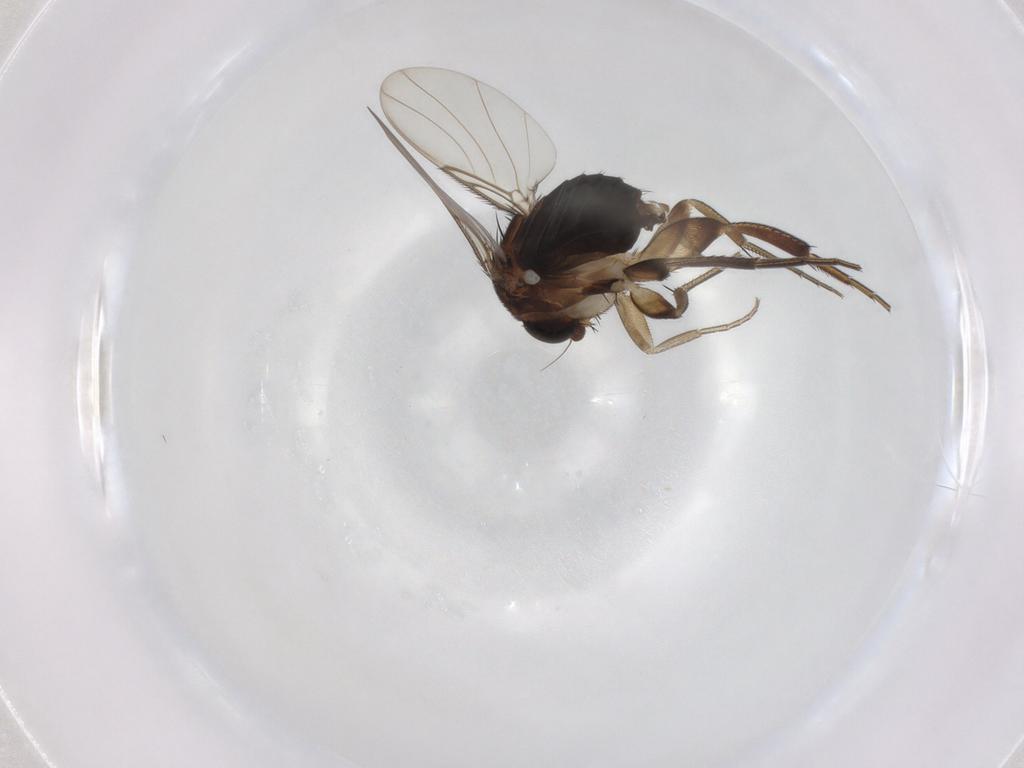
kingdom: Animalia
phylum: Arthropoda
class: Insecta
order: Diptera
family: Phoridae
